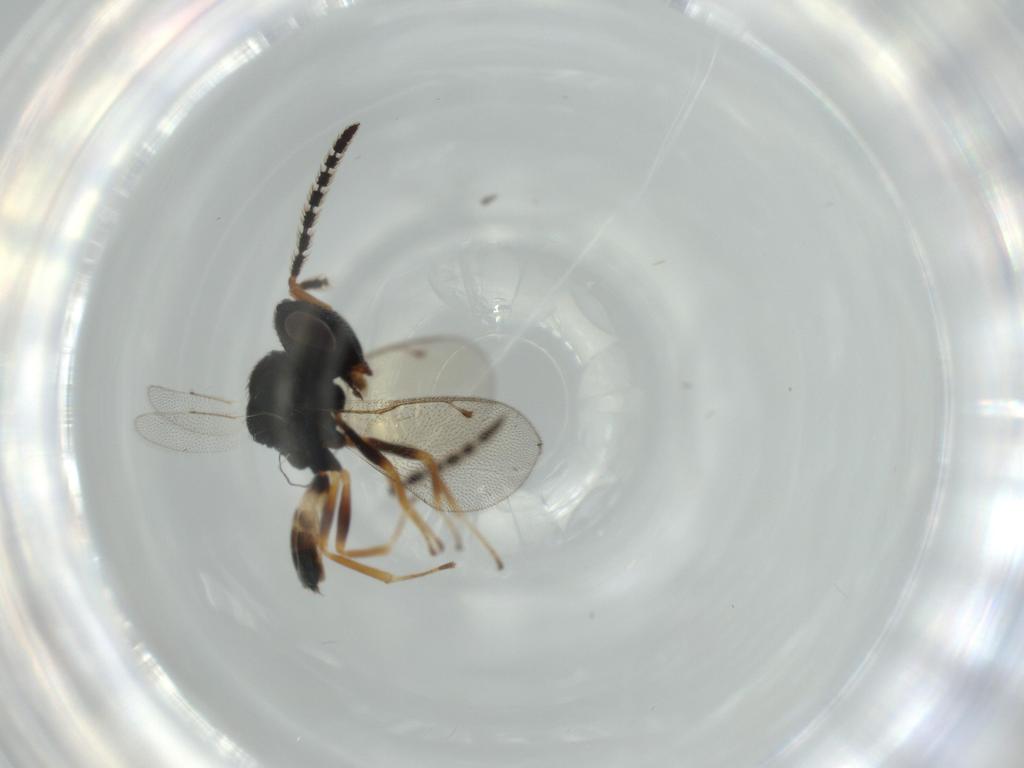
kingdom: Animalia
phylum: Arthropoda
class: Insecta
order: Hymenoptera
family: Pteromalidae
